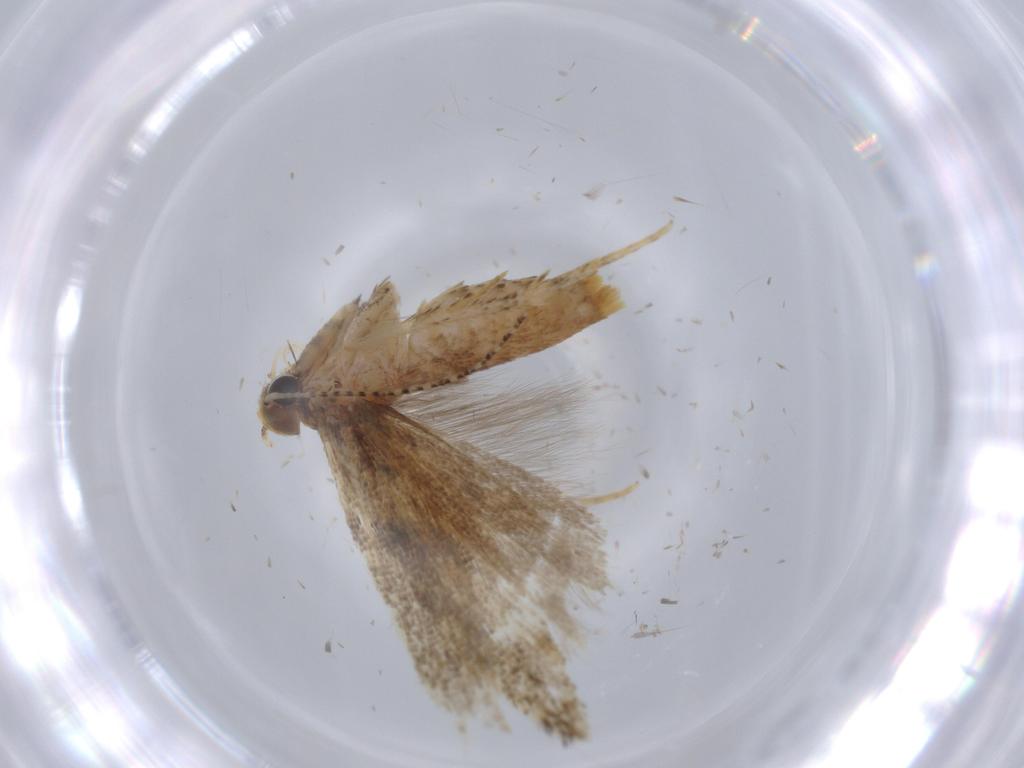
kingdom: Animalia
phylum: Arthropoda
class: Insecta
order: Lepidoptera
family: Gelechiidae
